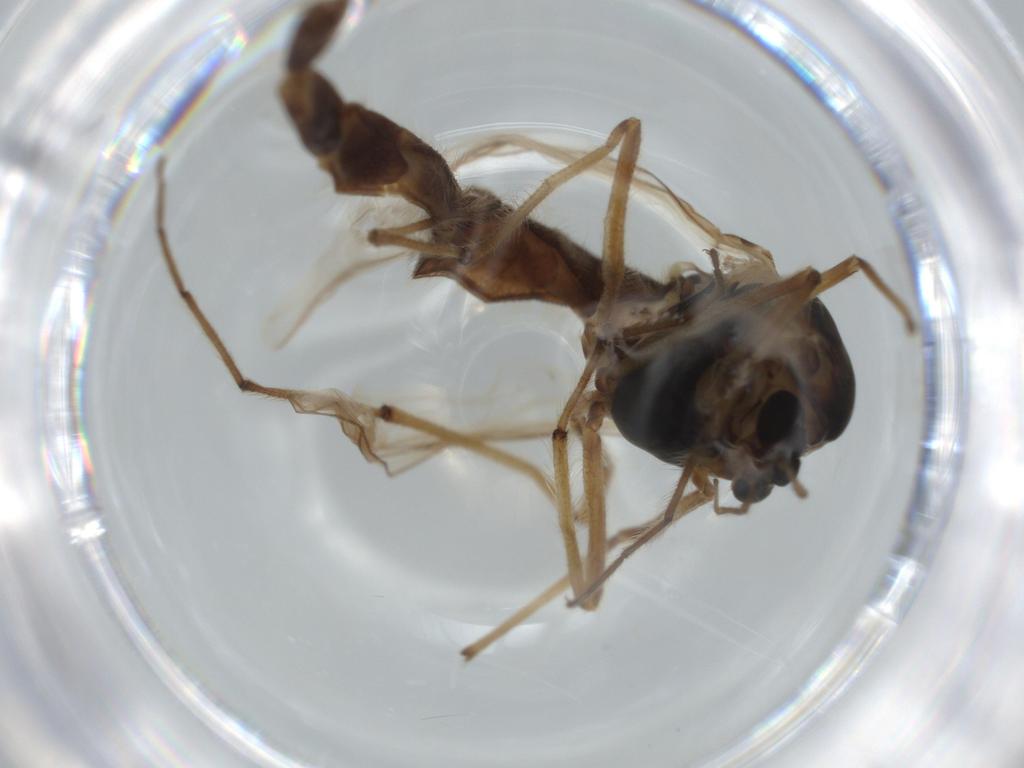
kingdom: Animalia
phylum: Arthropoda
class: Insecta
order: Diptera
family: Chironomidae
